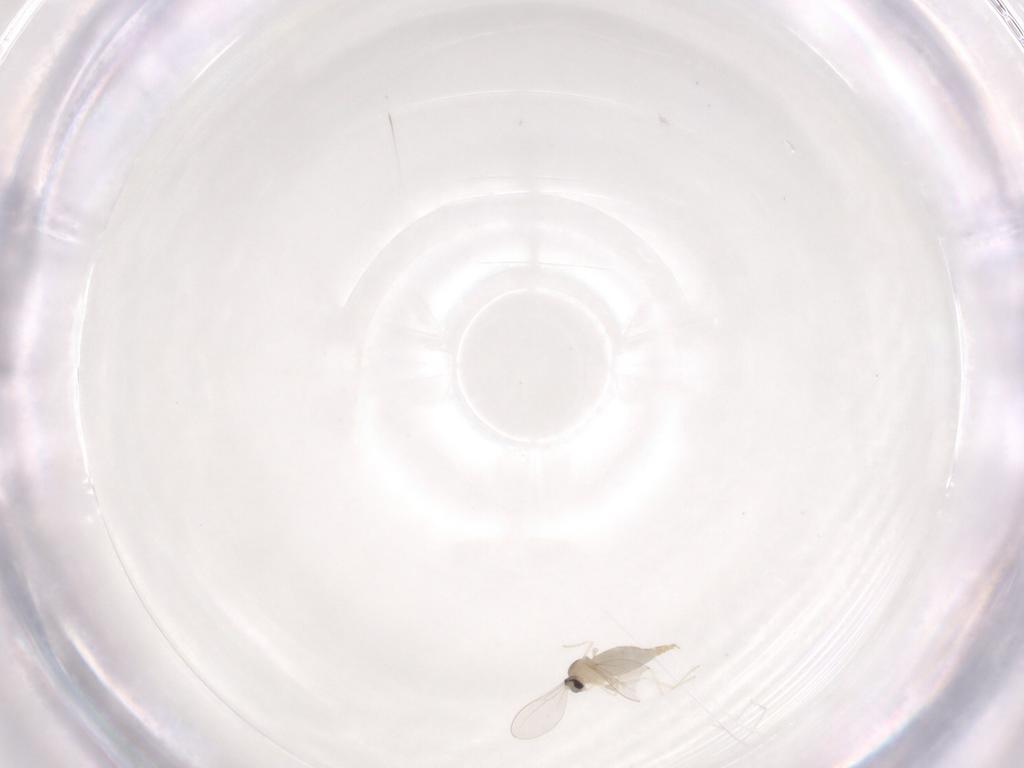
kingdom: Animalia
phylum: Arthropoda
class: Insecta
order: Diptera
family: Cecidomyiidae
